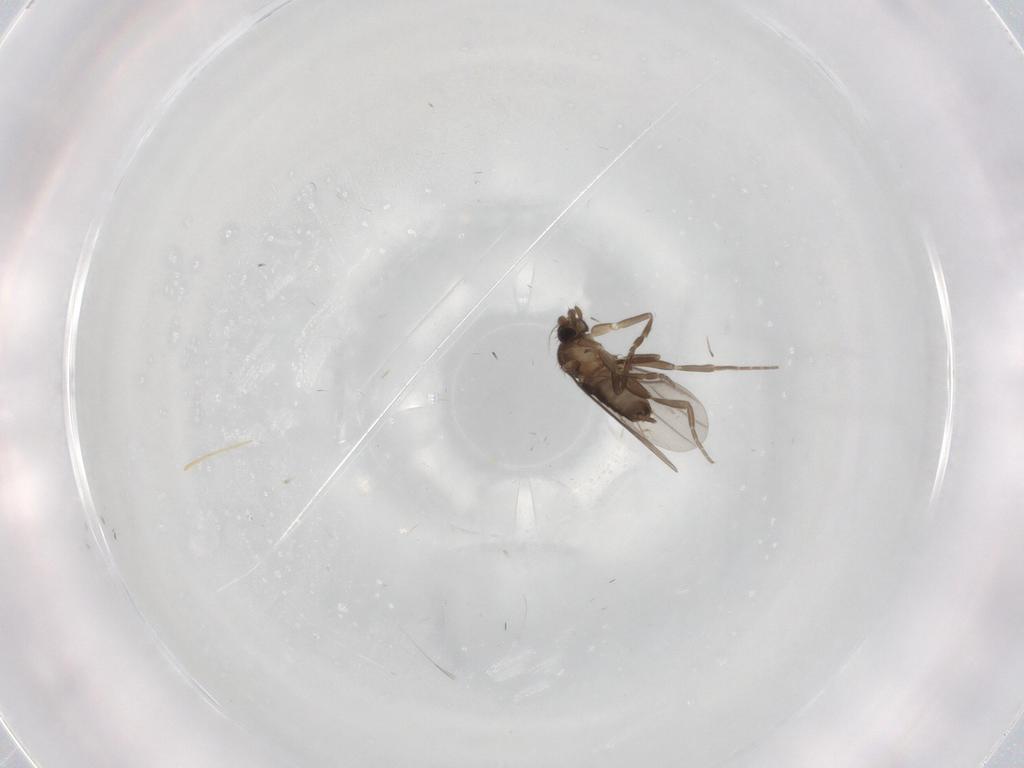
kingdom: Animalia
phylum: Arthropoda
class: Insecta
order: Diptera
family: Phoridae
